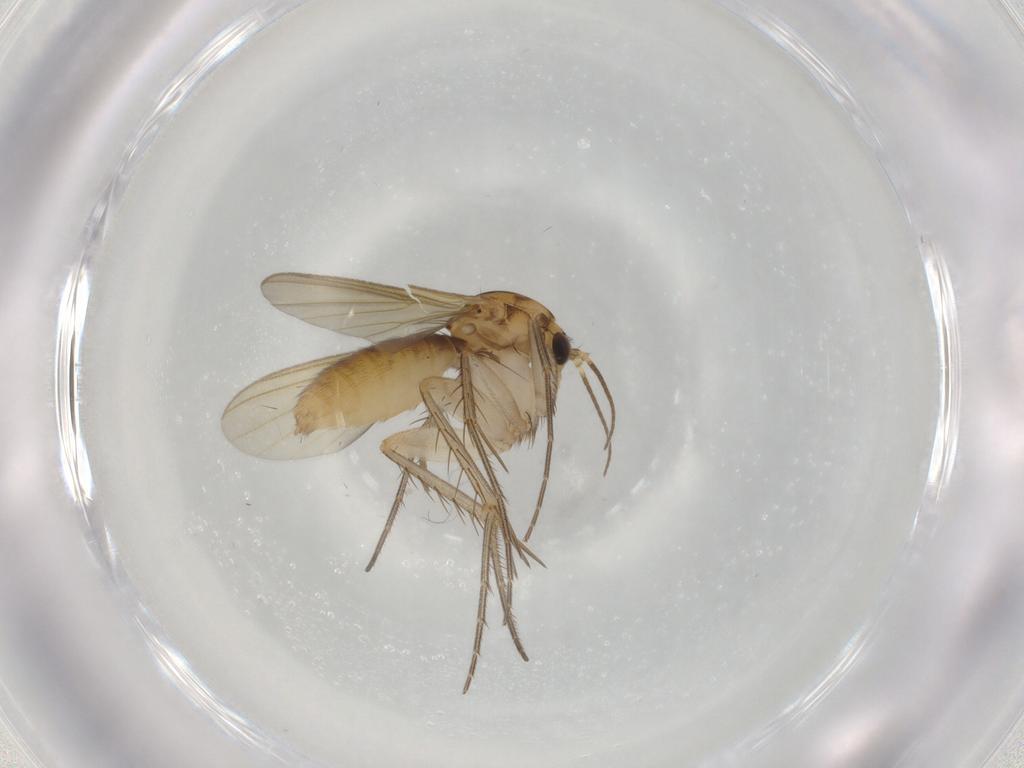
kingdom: Animalia
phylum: Arthropoda
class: Insecta
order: Diptera
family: Mycetophilidae
